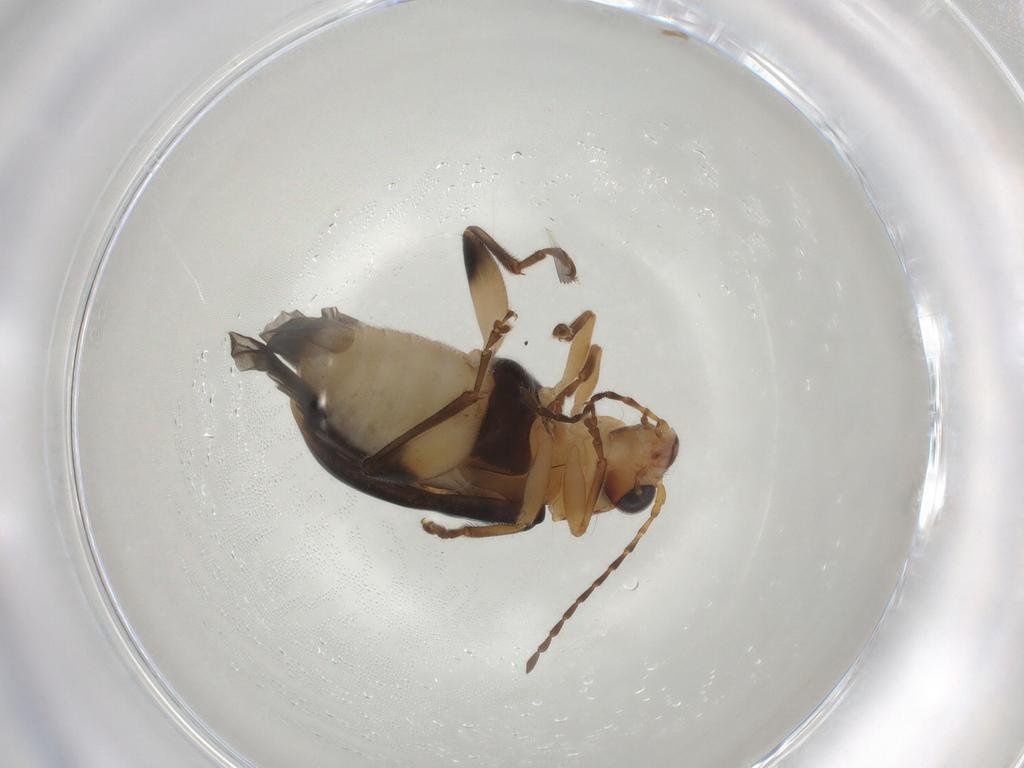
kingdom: Animalia
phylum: Arthropoda
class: Insecta
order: Coleoptera
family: Chrysomelidae
